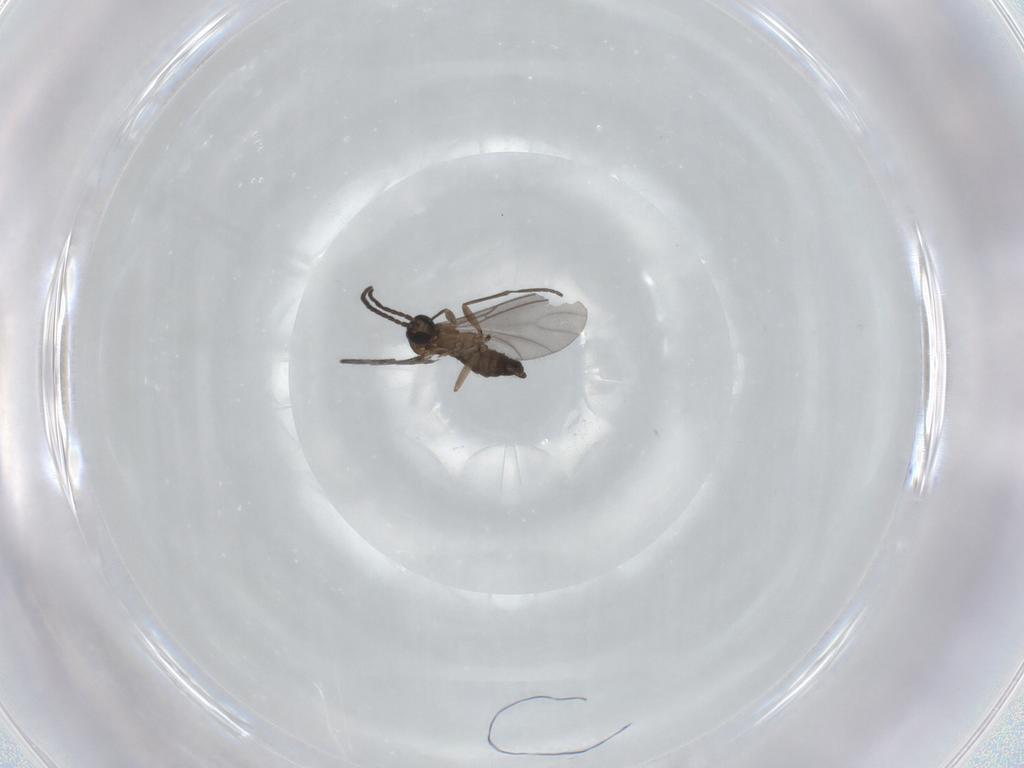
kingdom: Animalia
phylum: Arthropoda
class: Insecta
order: Diptera
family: Sciaridae
